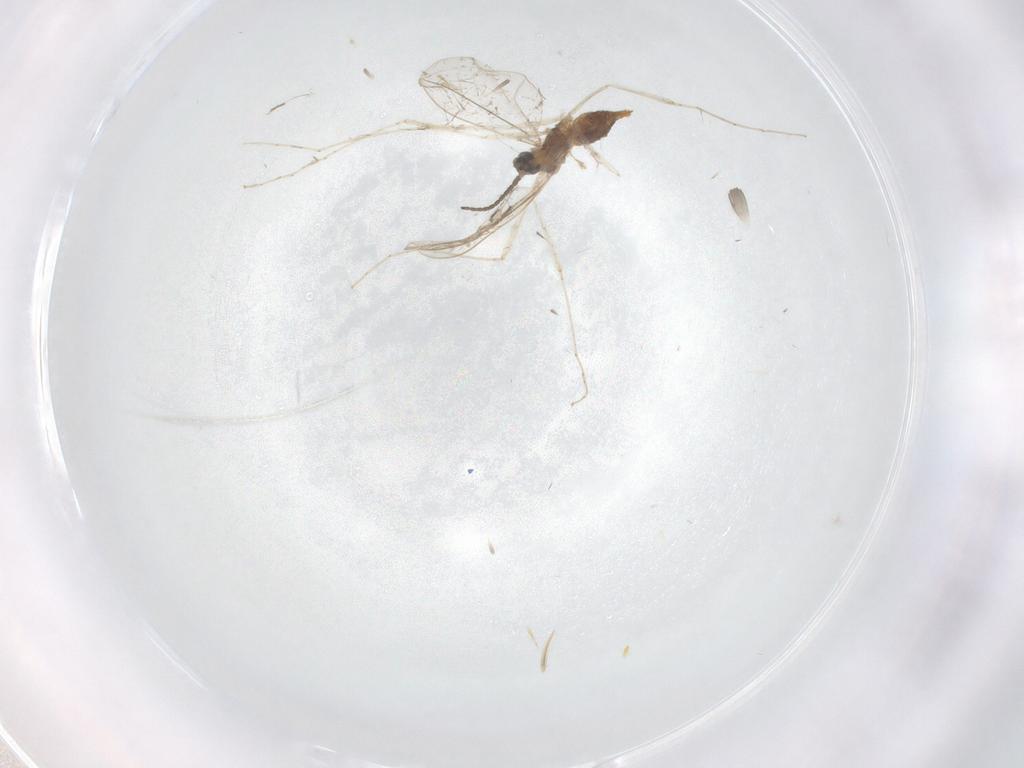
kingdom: Animalia
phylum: Arthropoda
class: Insecta
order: Diptera
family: Cecidomyiidae
